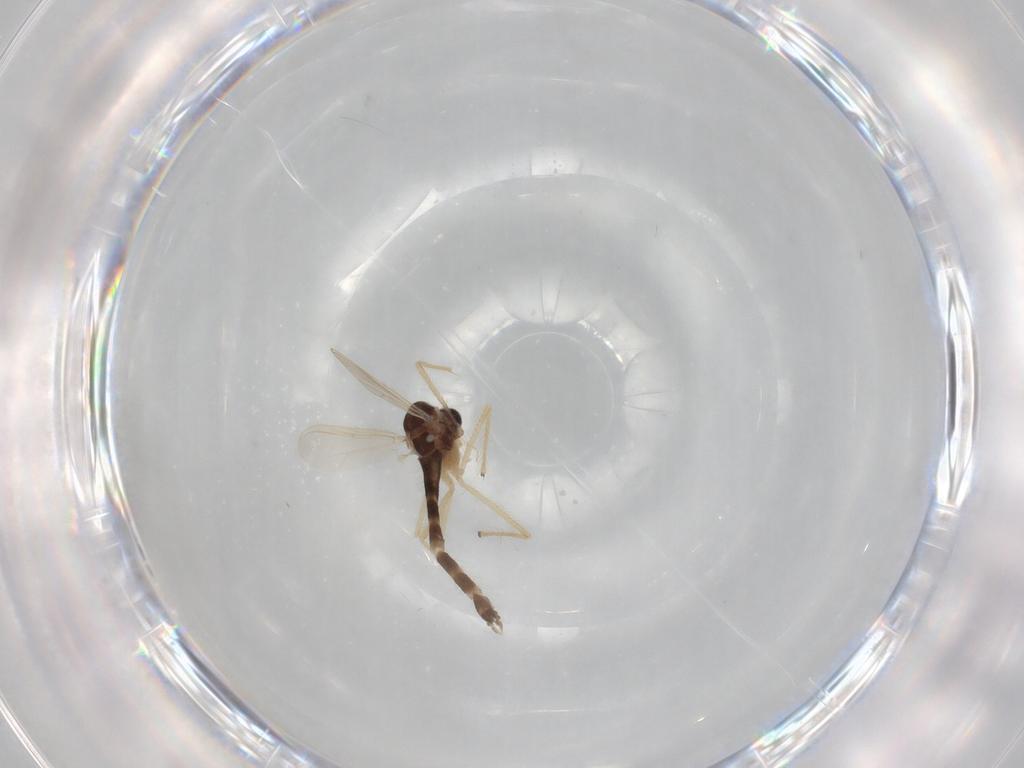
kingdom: Animalia
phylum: Arthropoda
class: Insecta
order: Diptera
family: Chironomidae
